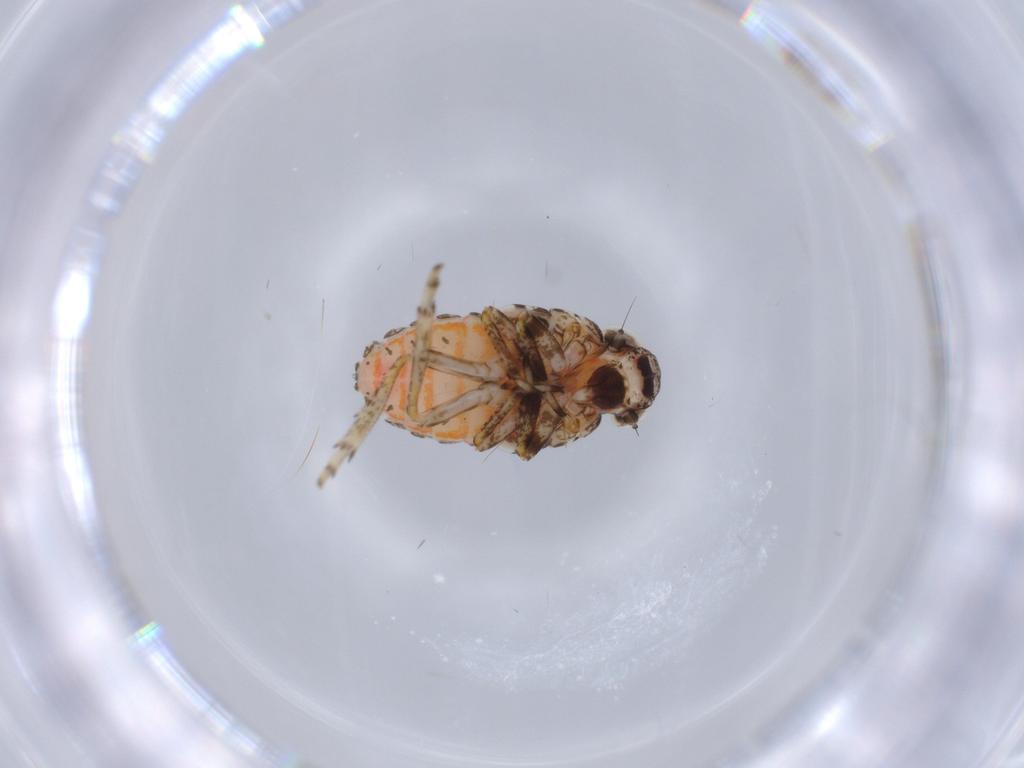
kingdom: Animalia
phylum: Arthropoda
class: Insecta
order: Hemiptera
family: Issidae
